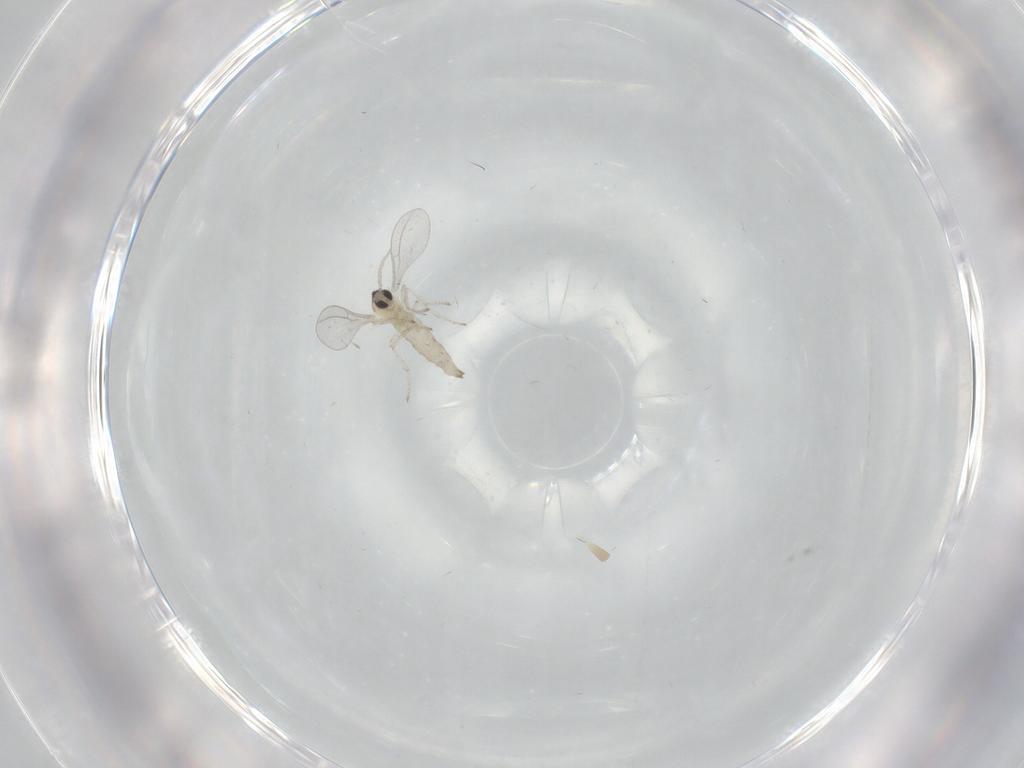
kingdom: Animalia
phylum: Arthropoda
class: Insecta
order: Diptera
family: Cecidomyiidae
